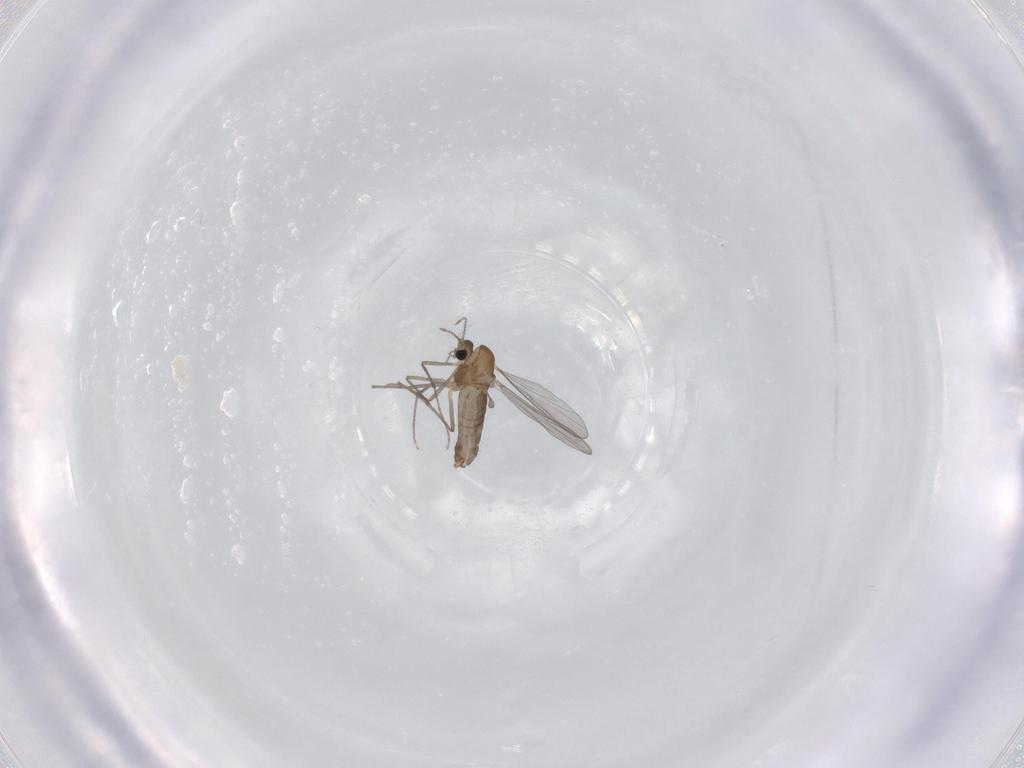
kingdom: Animalia
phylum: Arthropoda
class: Insecta
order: Diptera
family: Chironomidae
